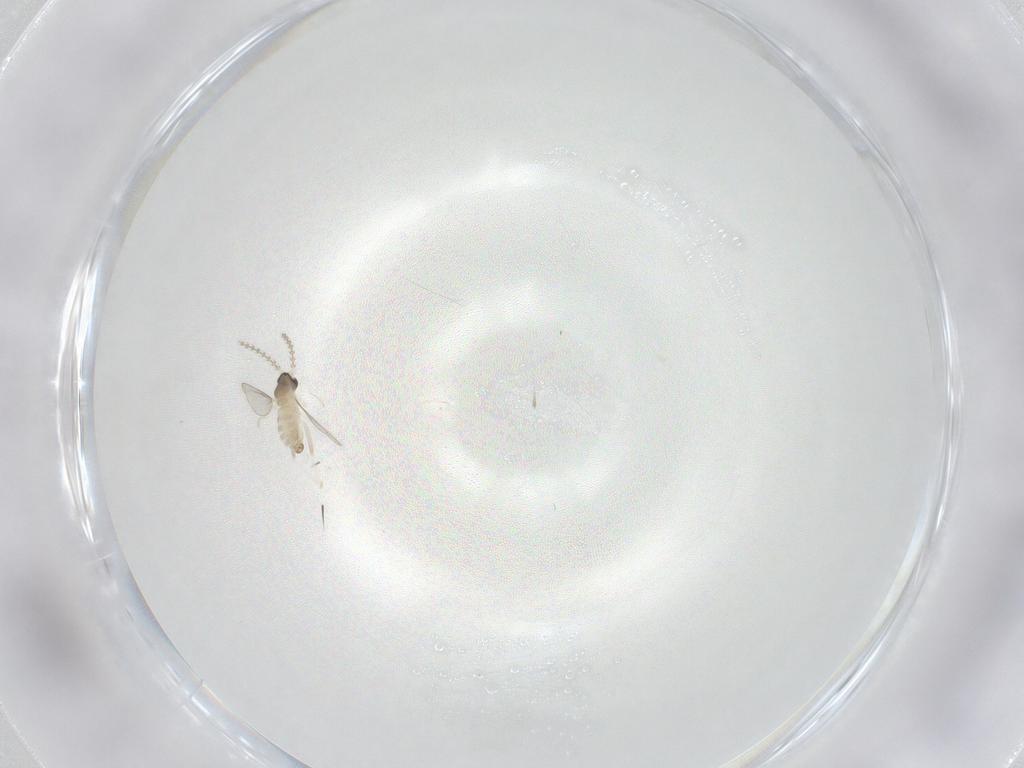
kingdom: Animalia
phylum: Arthropoda
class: Insecta
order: Diptera
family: Cecidomyiidae
